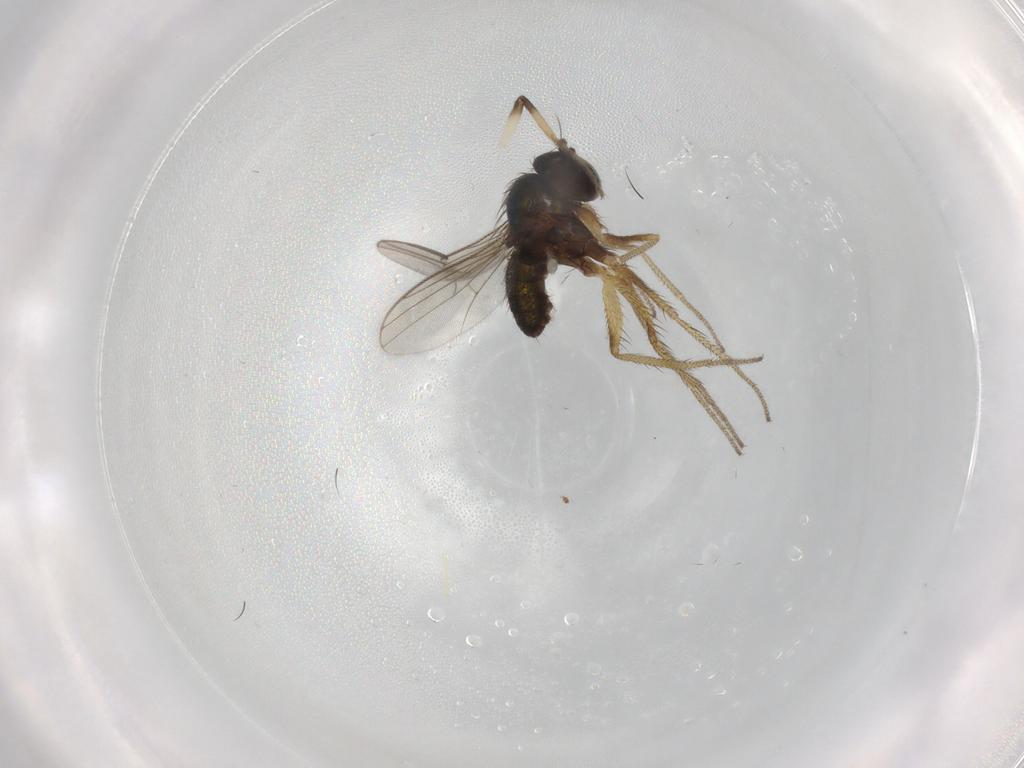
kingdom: Animalia
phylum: Arthropoda
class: Insecta
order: Diptera
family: Ceratopogonidae
